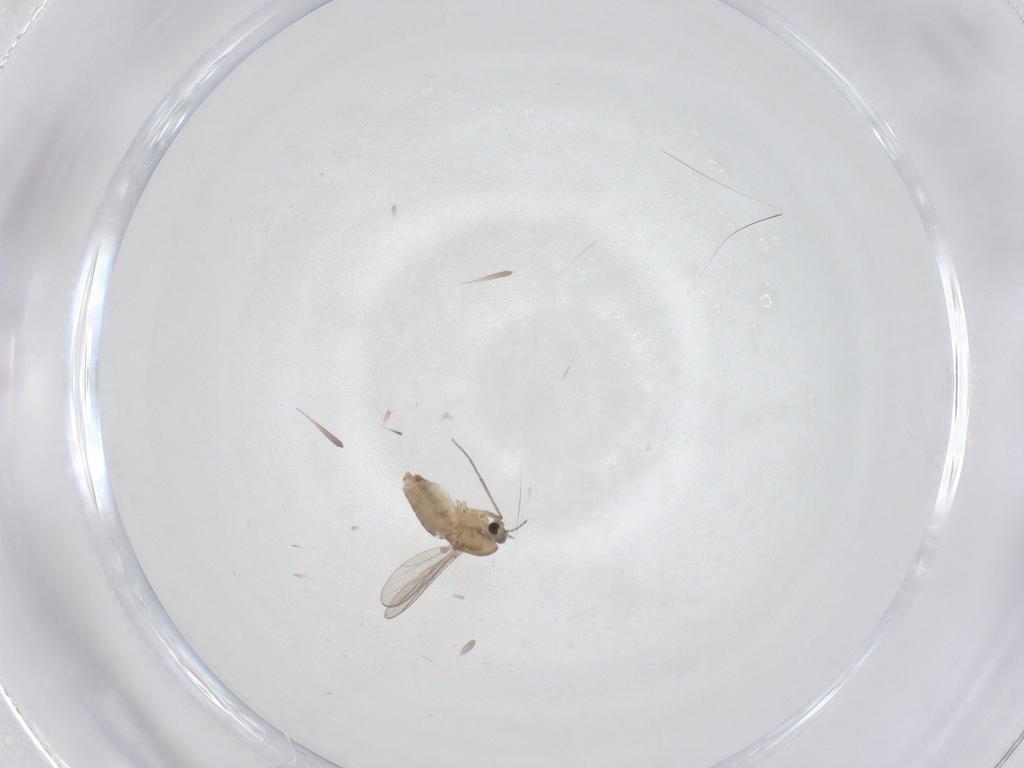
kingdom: Animalia
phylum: Arthropoda
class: Insecta
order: Diptera
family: Chironomidae
